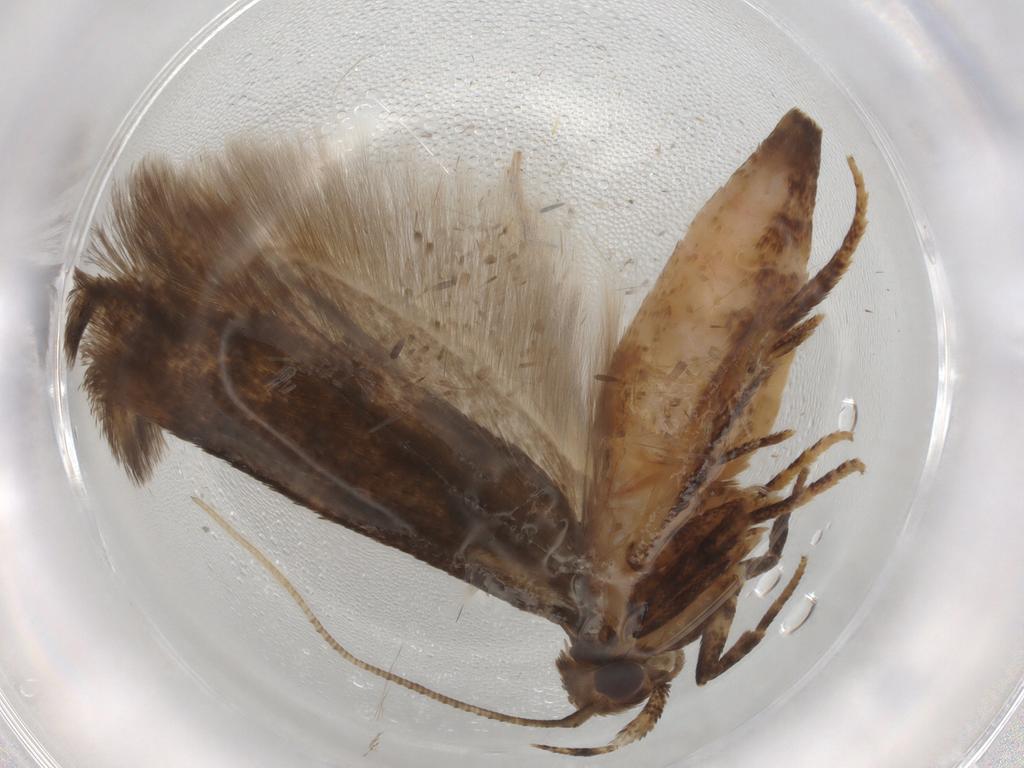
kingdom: Animalia
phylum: Arthropoda
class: Insecta
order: Lepidoptera
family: Gelechiidae
